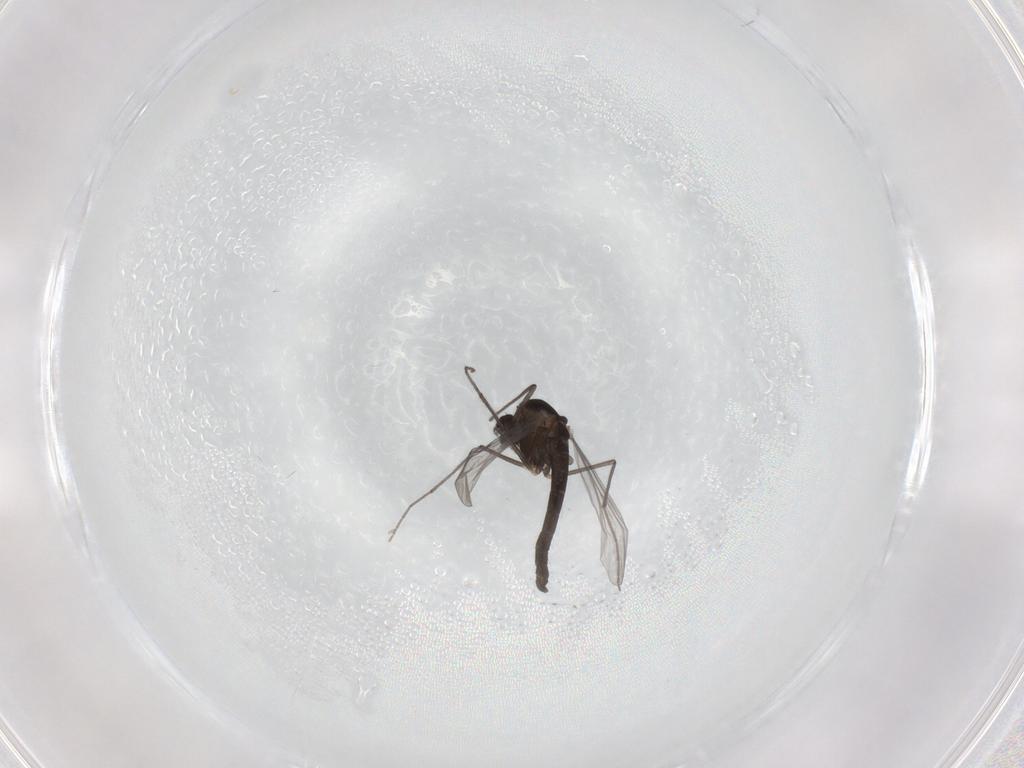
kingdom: Animalia
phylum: Arthropoda
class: Insecta
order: Diptera
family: Chironomidae
